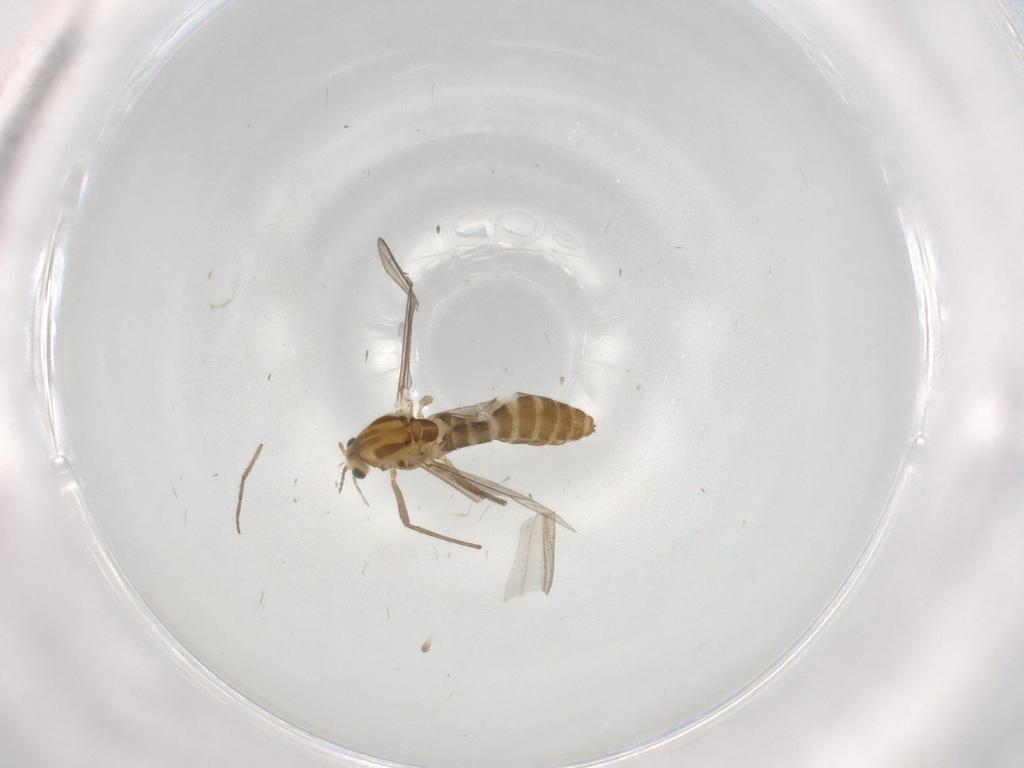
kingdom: Animalia
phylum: Arthropoda
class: Insecta
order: Diptera
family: Chironomidae
